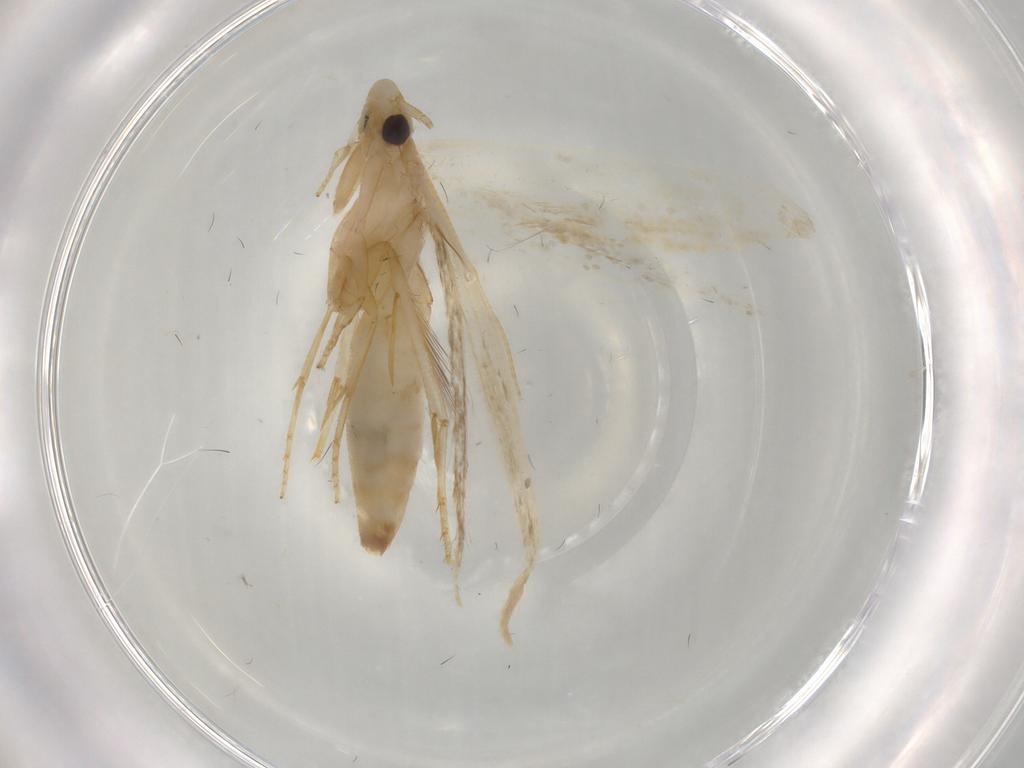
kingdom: Animalia
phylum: Arthropoda
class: Insecta
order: Lepidoptera
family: Tineidae
